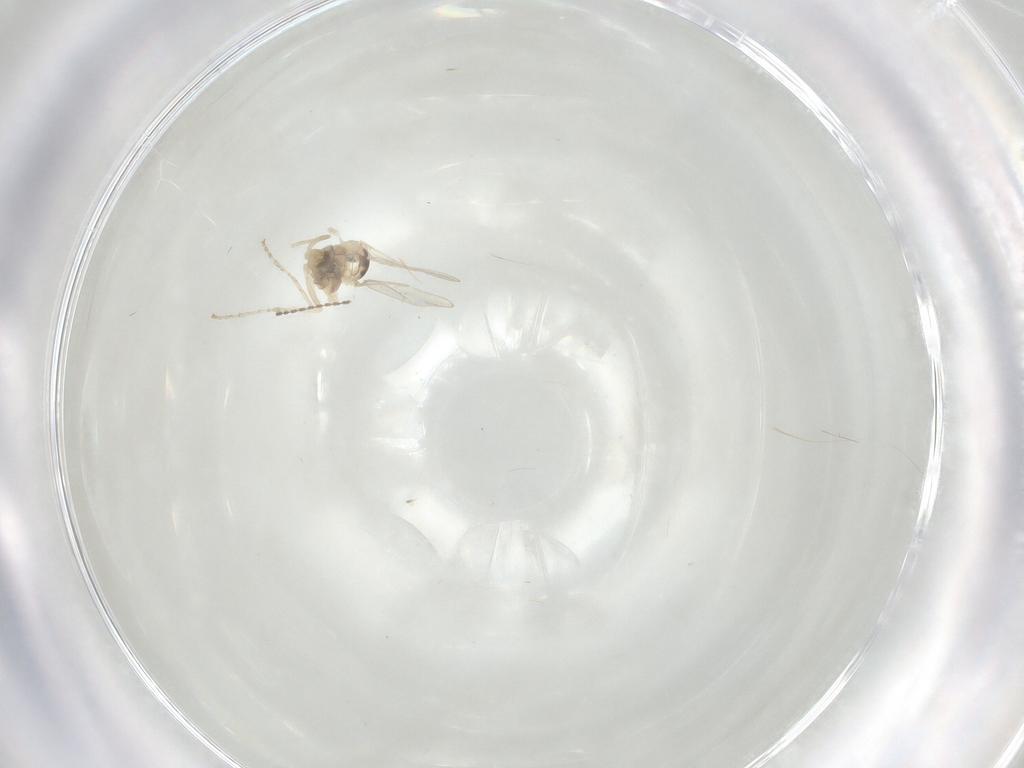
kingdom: Animalia
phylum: Arthropoda
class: Insecta
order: Diptera
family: Cecidomyiidae
